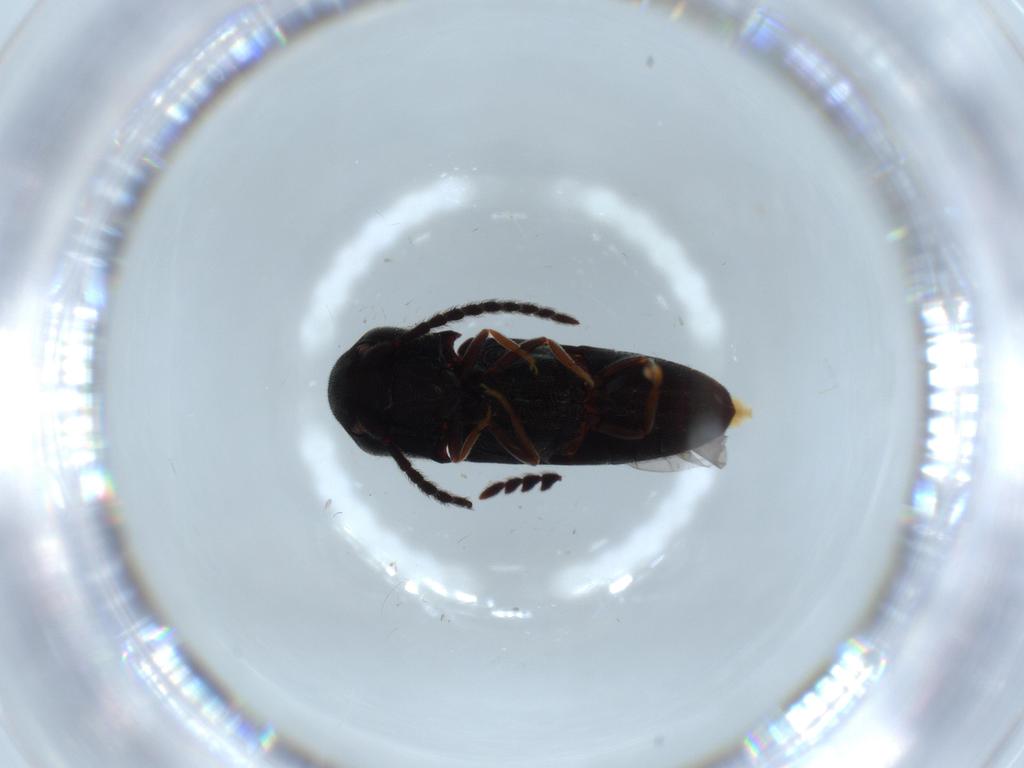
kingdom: Animalia
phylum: Arthropoda
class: Insecta
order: Coleoptera
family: Eucnemidae
